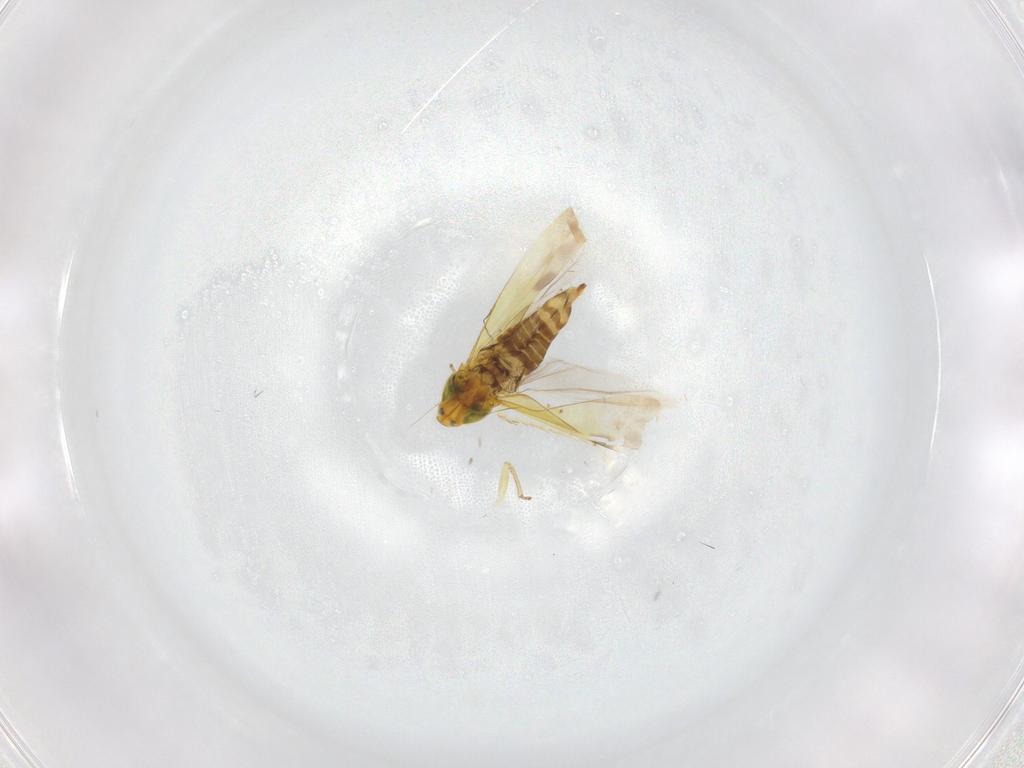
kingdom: Animalia
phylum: Arthropoda
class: Insecta
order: Hemiptera
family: Cicadellidae
